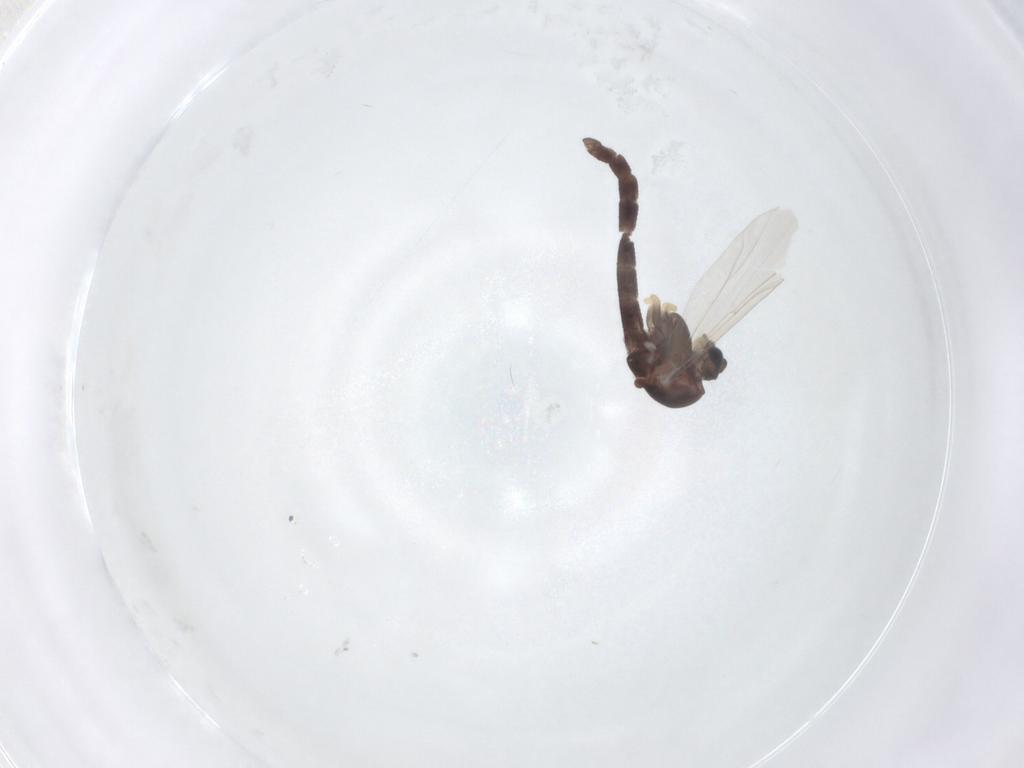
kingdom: Animalia
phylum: Arthropoda
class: Insecta
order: Diptera
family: Chironomidae
